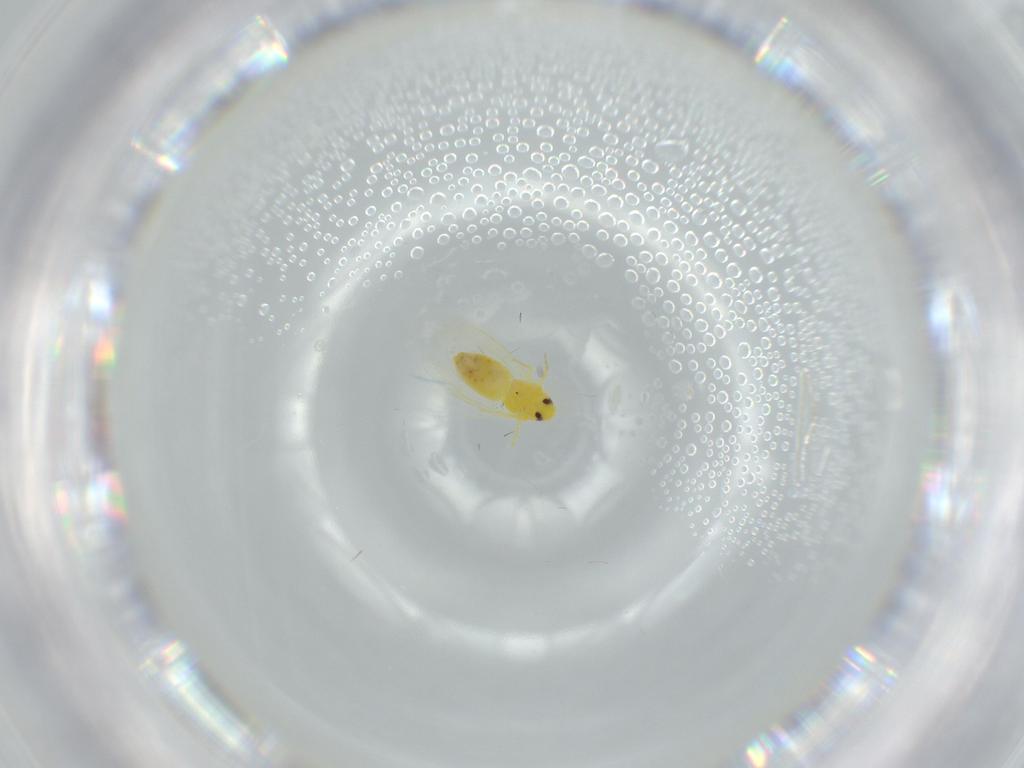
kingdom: Animalia
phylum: Arthropoda
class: Insecta
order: Hemiptera
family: Aleyrodidae
